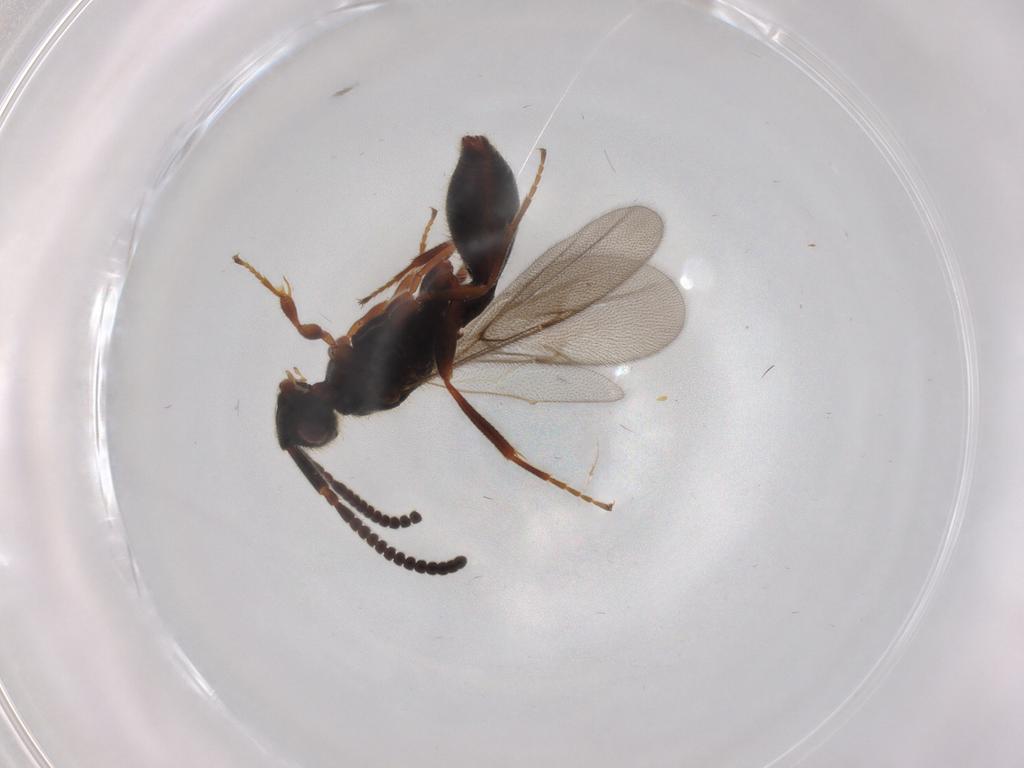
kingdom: Animalia
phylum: Arthropoda
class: Insecta
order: Hymenoptera
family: Diapriidae
